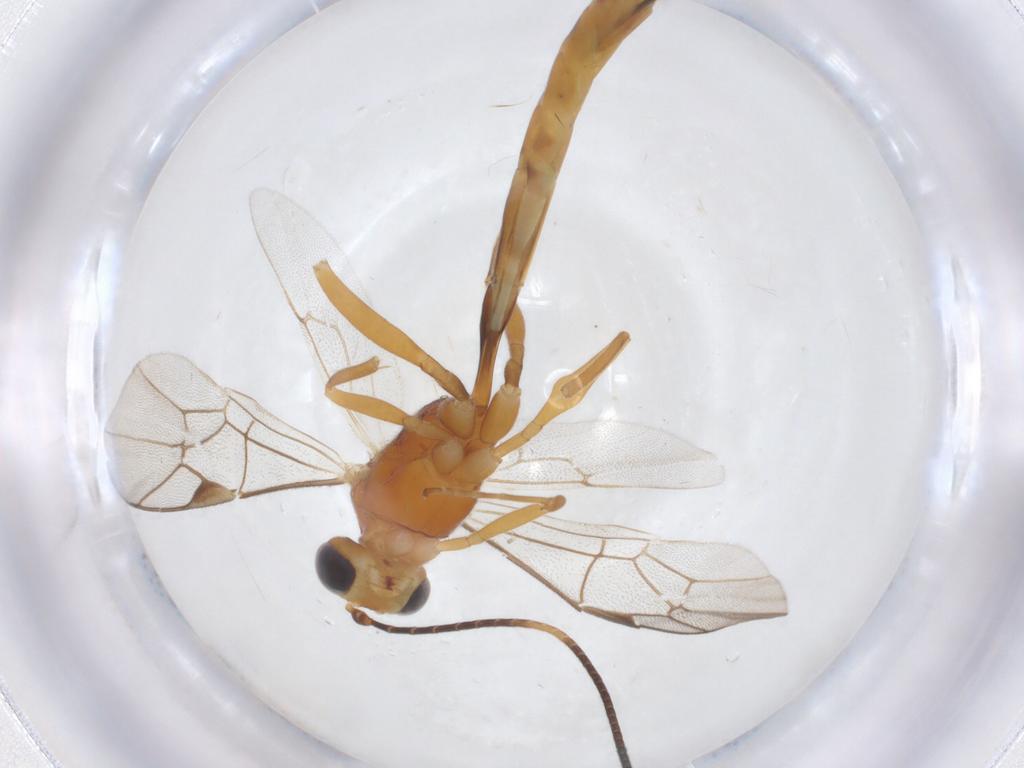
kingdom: Animalia
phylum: Arthropoda
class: Insecta
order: Hymenoptera
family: Ichneumonidae
